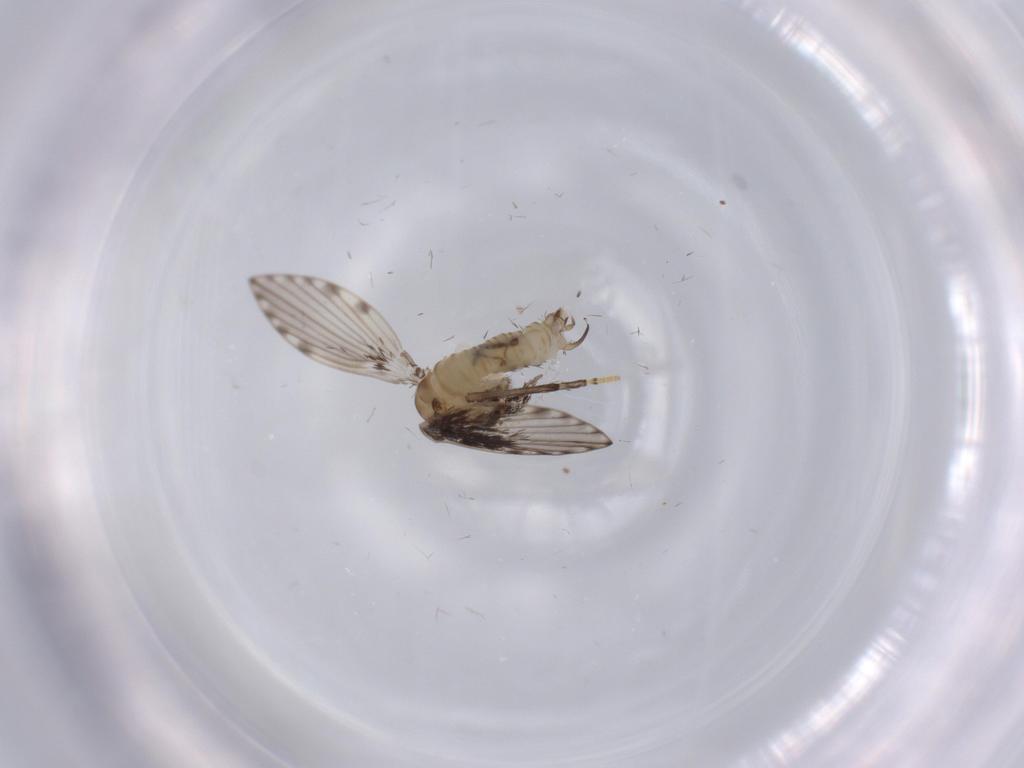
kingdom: Animalia
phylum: Arthropoda
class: Insecta
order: Diptera
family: Psychodidae
